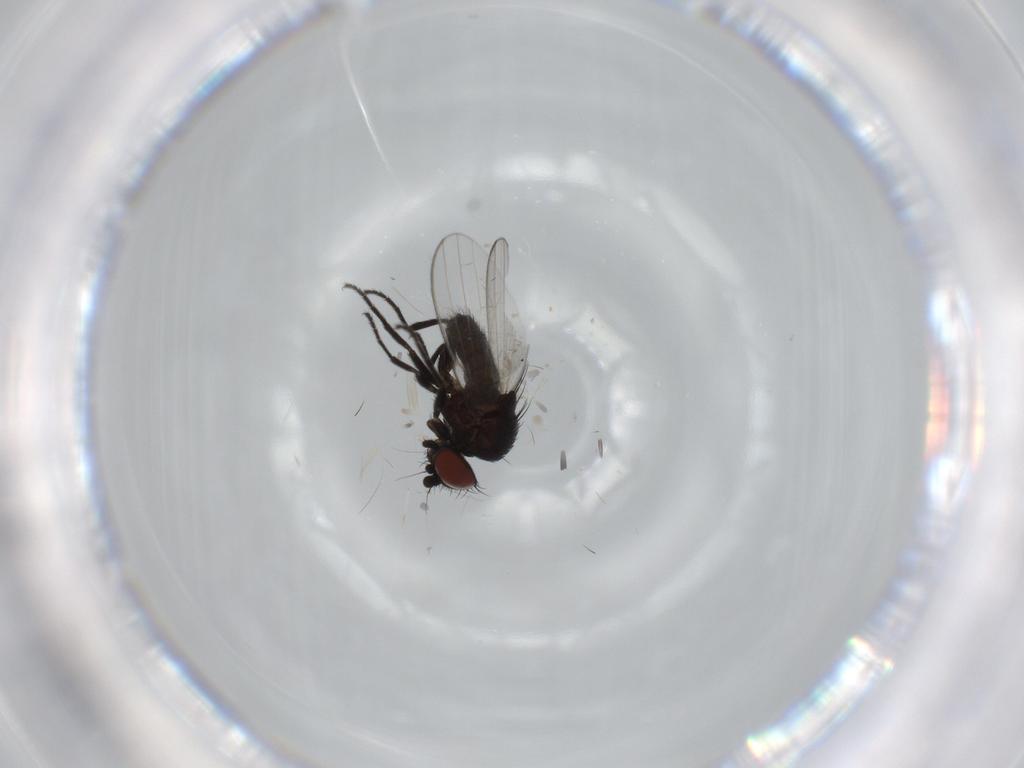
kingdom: Animalia
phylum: Arthropoda
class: Insecta
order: Diptera
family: Milichiidae
